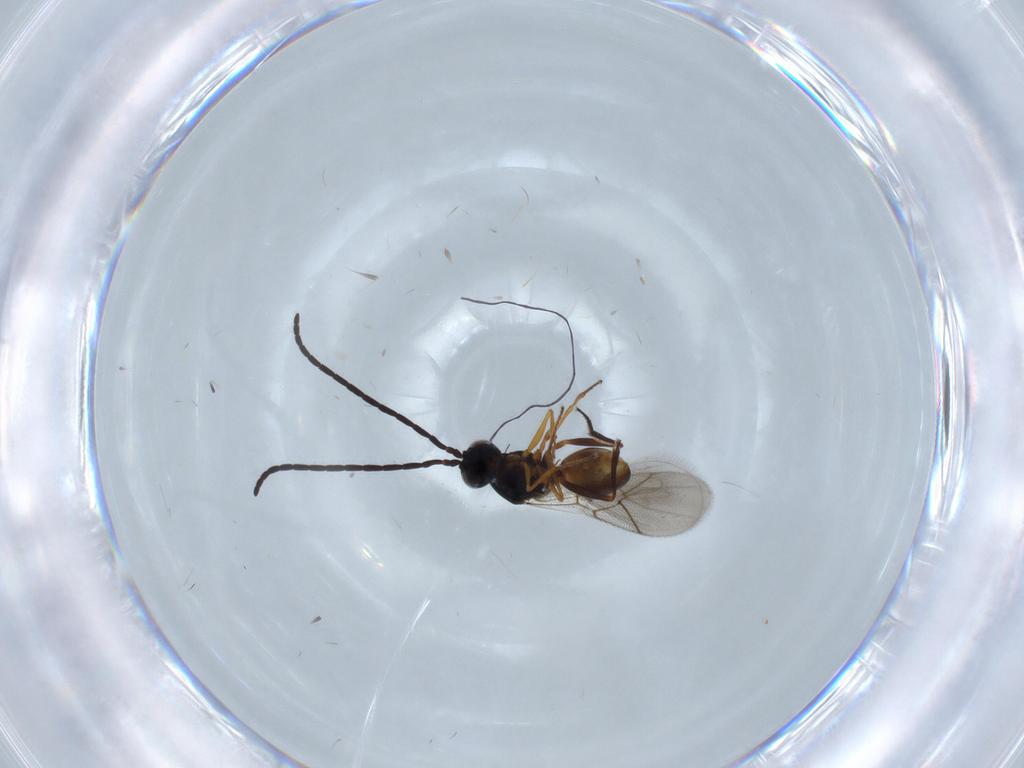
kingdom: Animalia
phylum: Arthropoda
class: Insecta
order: Hymenoptera
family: Figitidae
